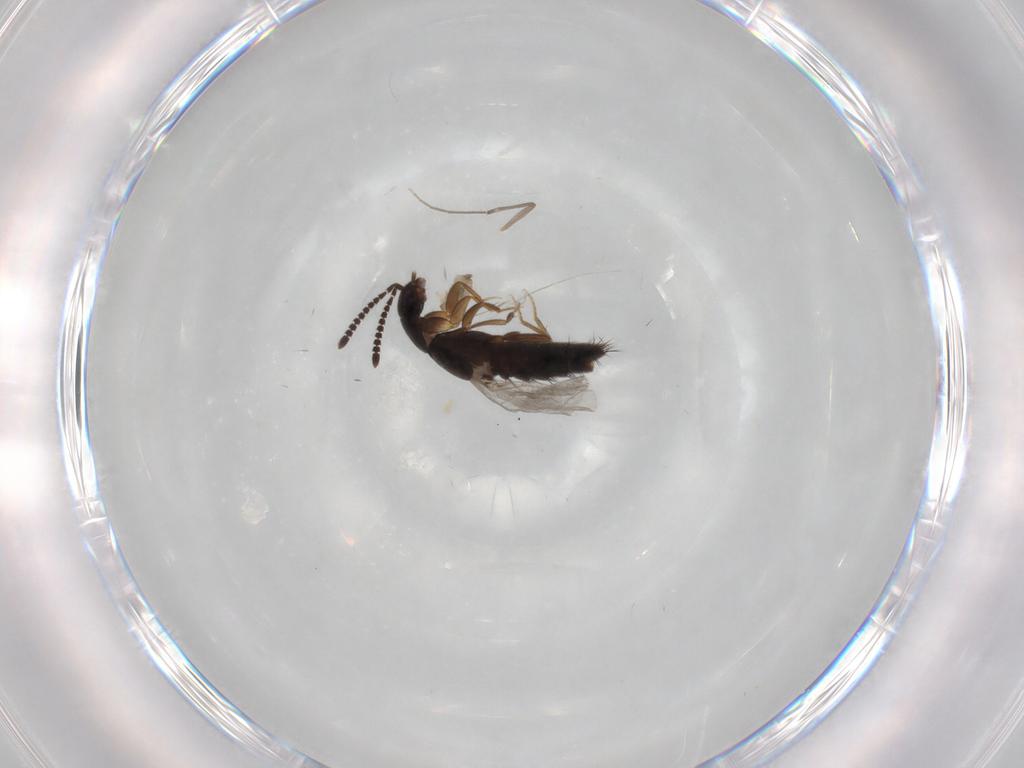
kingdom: Animalia
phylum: Arthropoda
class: Insecta
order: Coleoptera
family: Staphylinidae
